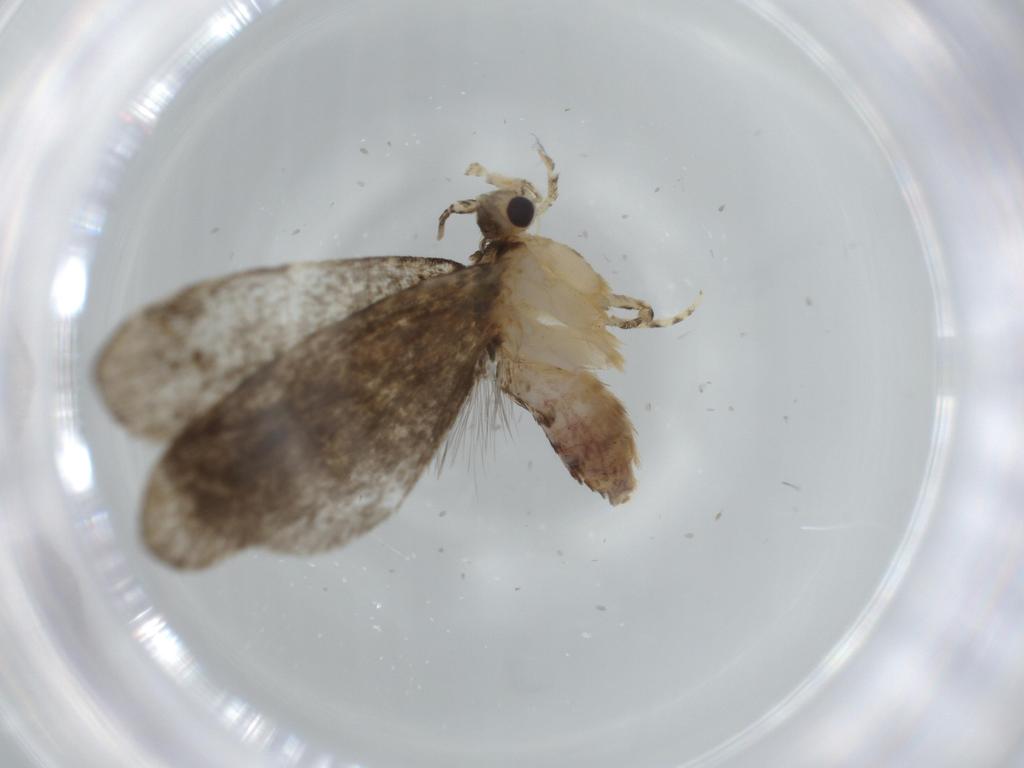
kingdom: Animalia
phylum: Arthropoda
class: Insecta
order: Lepidoptera
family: Tineidae
